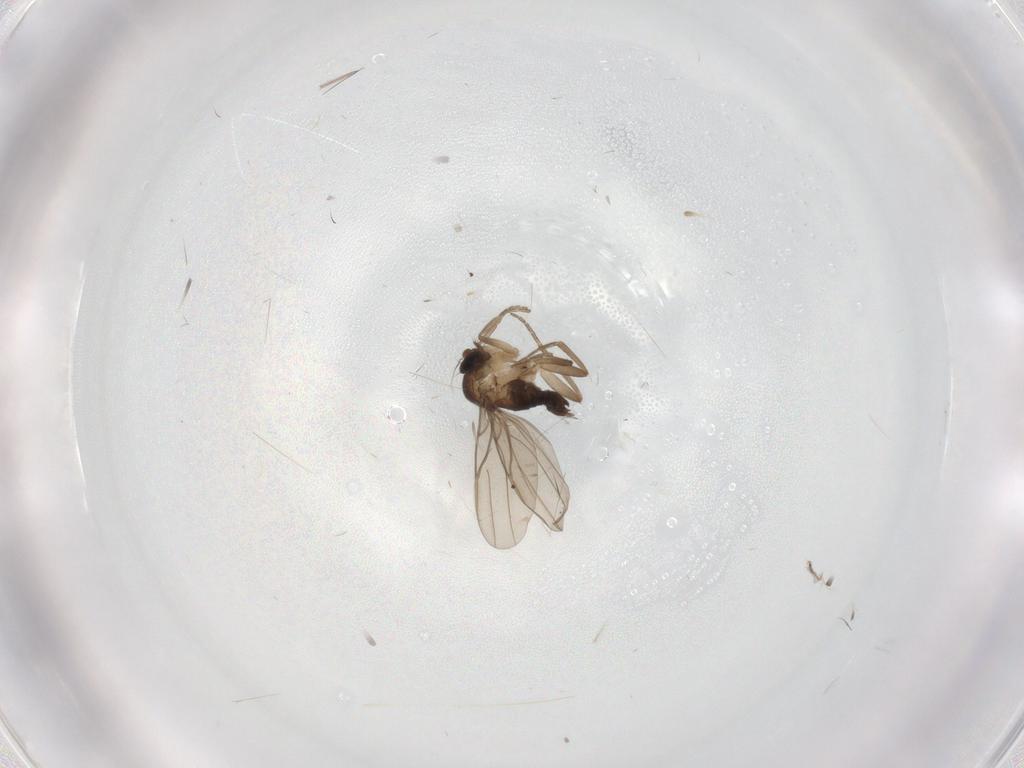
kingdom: Animalia
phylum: Arthropoda
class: Insecta
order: Diptera
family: Phoridae
